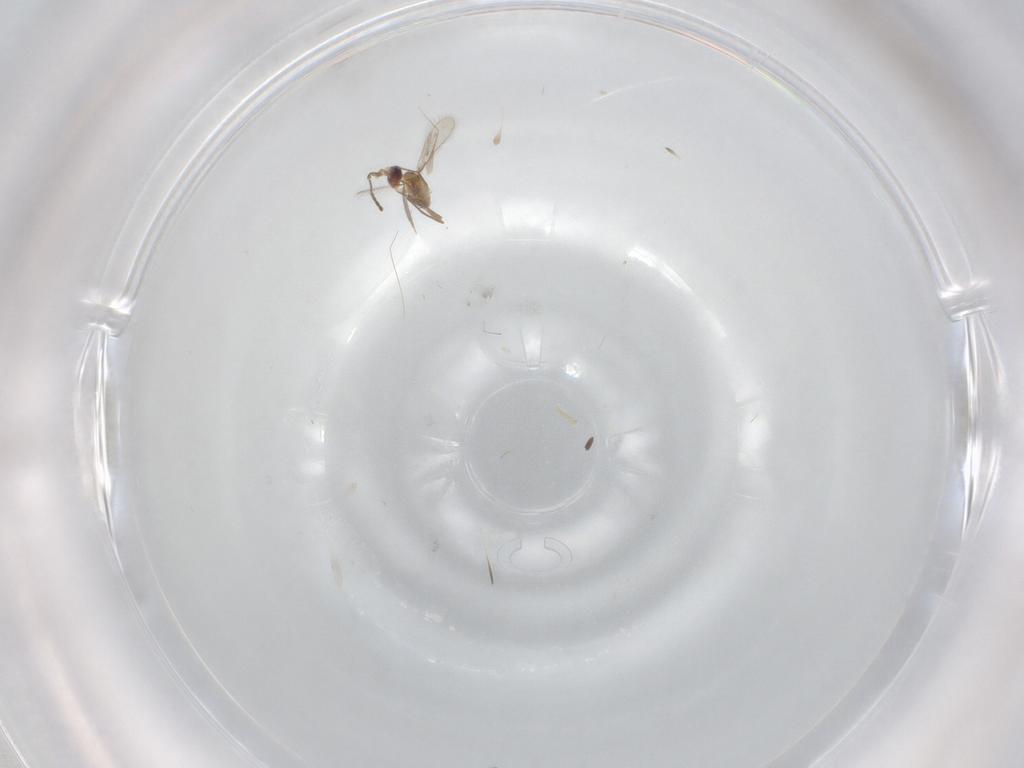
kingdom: Animalia
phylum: Arthropoda
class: Insecta
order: Hymenoptera
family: Mymaridae
